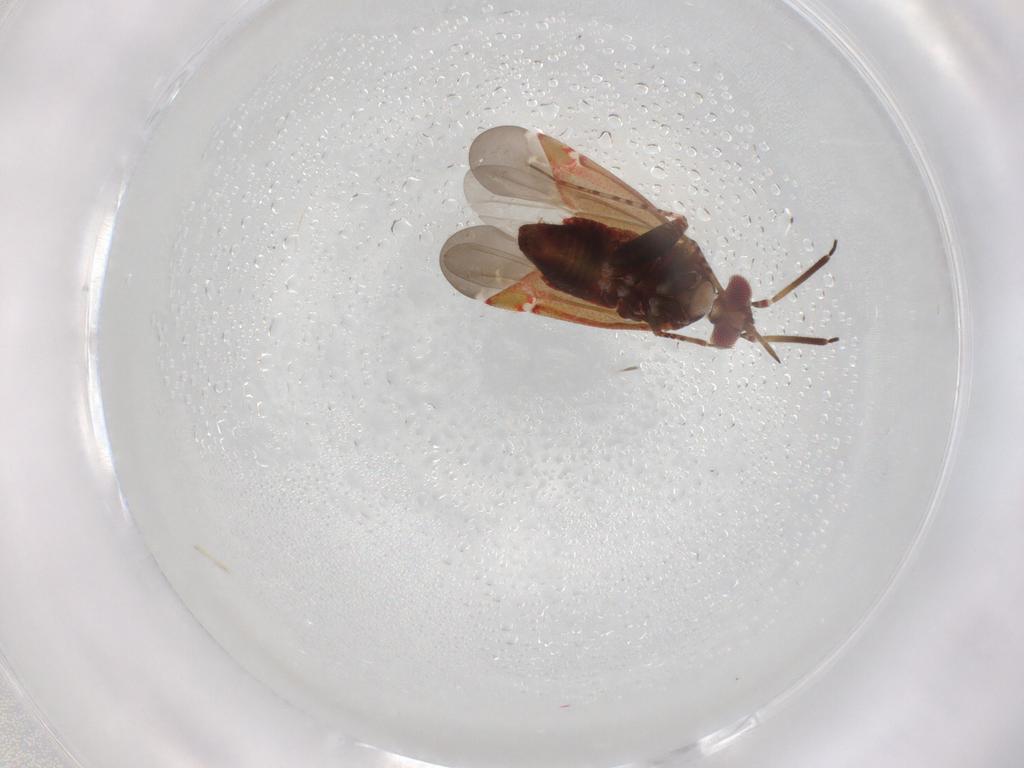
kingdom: Animalia
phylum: Arthropoda
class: Insecta
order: Hemiptera
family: Miridae
